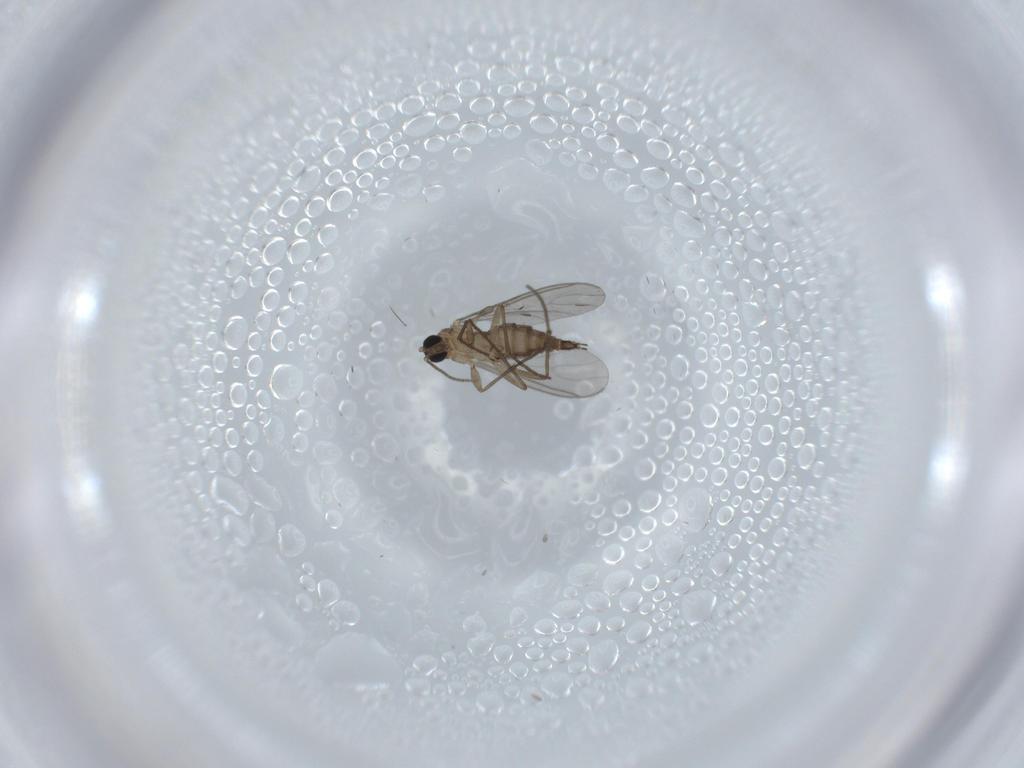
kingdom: Animalia
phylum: Arthropoda
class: Insecta
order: Diptera
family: Hybotidae
